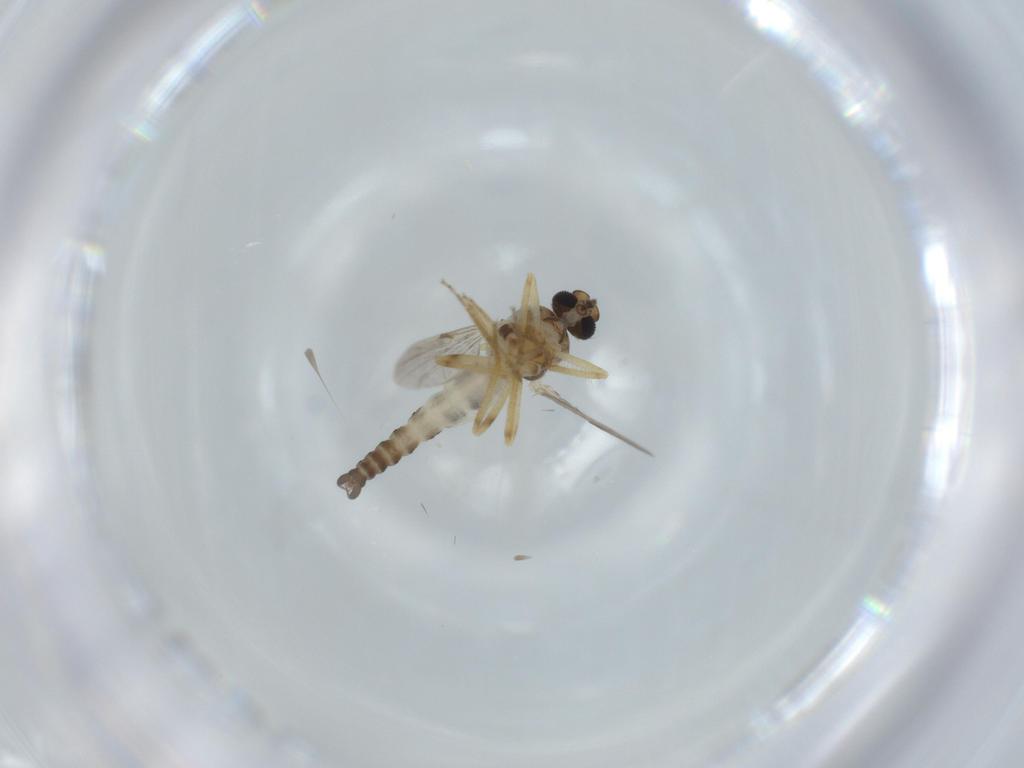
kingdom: Animalia
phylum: Arthropoda
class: Insecta
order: Diptera
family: Ceratopogonidae
